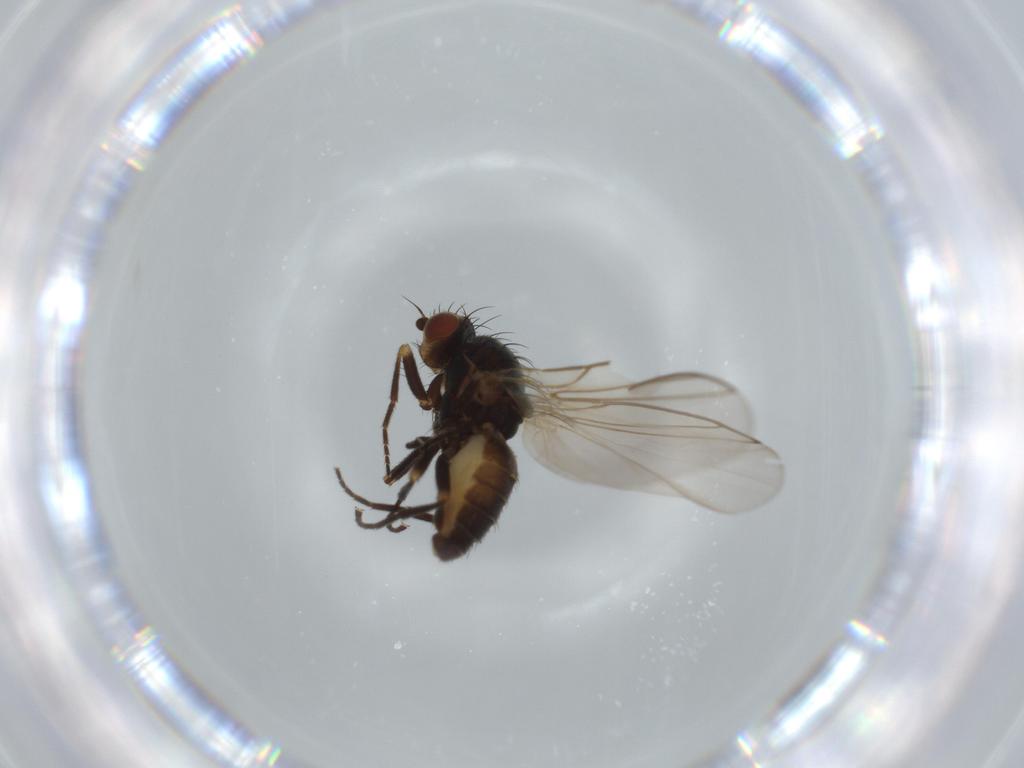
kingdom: Animalia
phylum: Arthropoda
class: Insecta
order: Diptera
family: Agromyzidae
